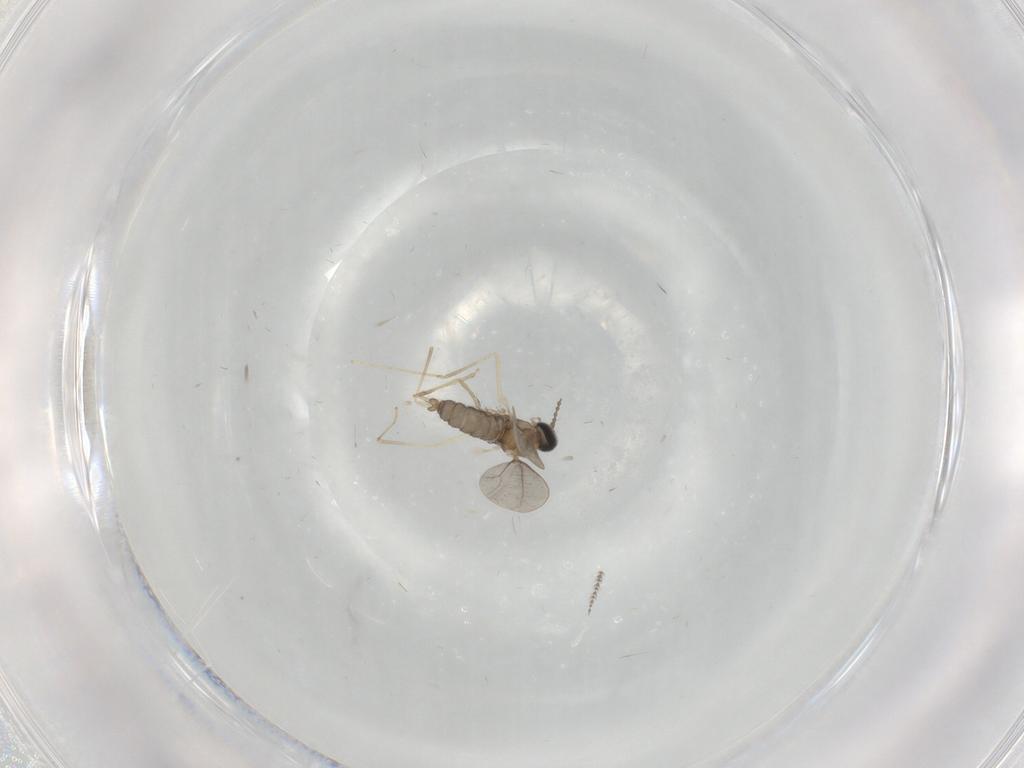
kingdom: Animalia
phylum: Arthropoda
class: Insecta
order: Diptera
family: Cecidomyiidae
